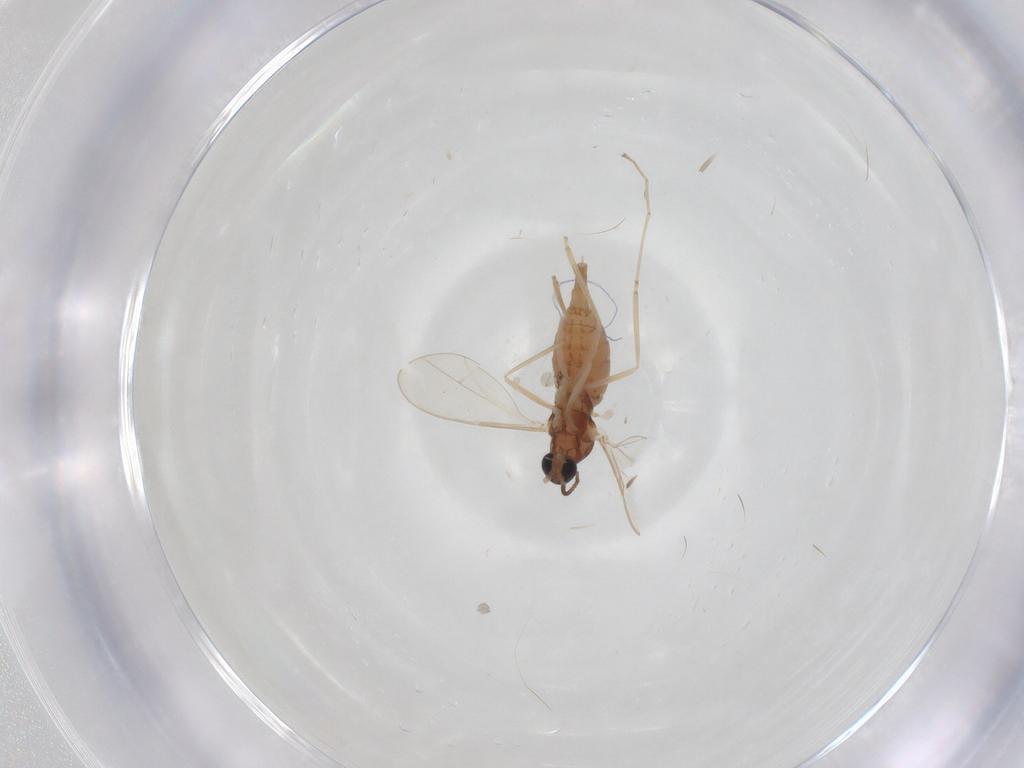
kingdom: Animalia
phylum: Arthropoda
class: Insecta
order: Diptera
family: Cecidomyiidae
